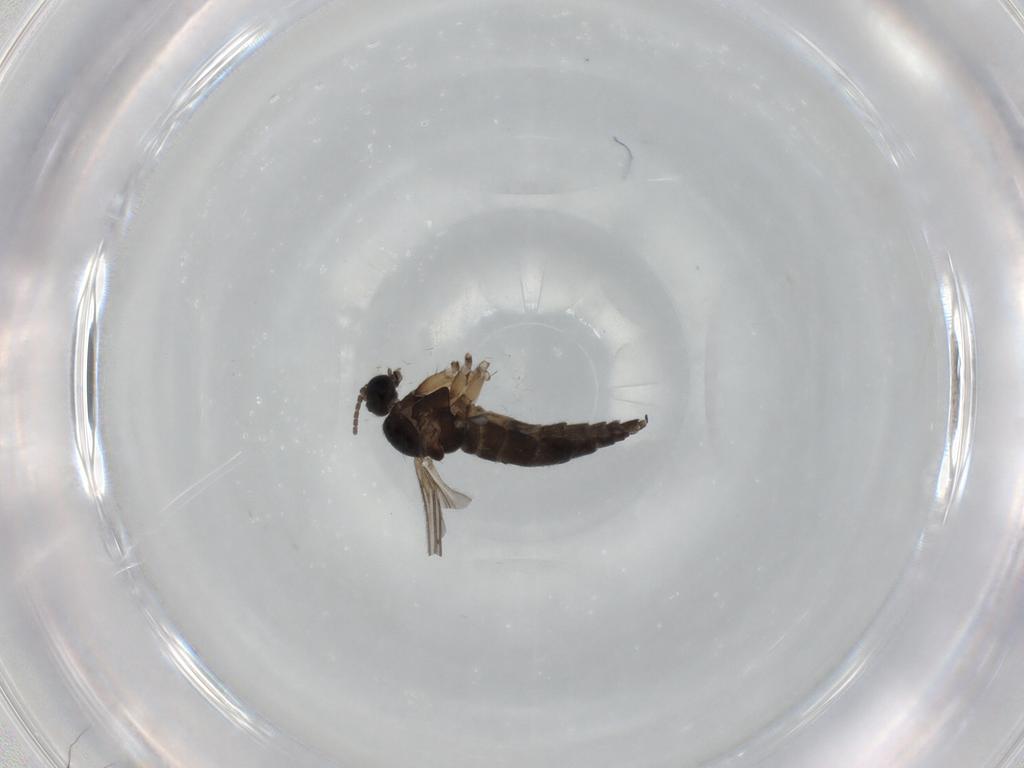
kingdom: Animalia
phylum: Arthropoda
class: Insecta
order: Diptera
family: Sciaridae
